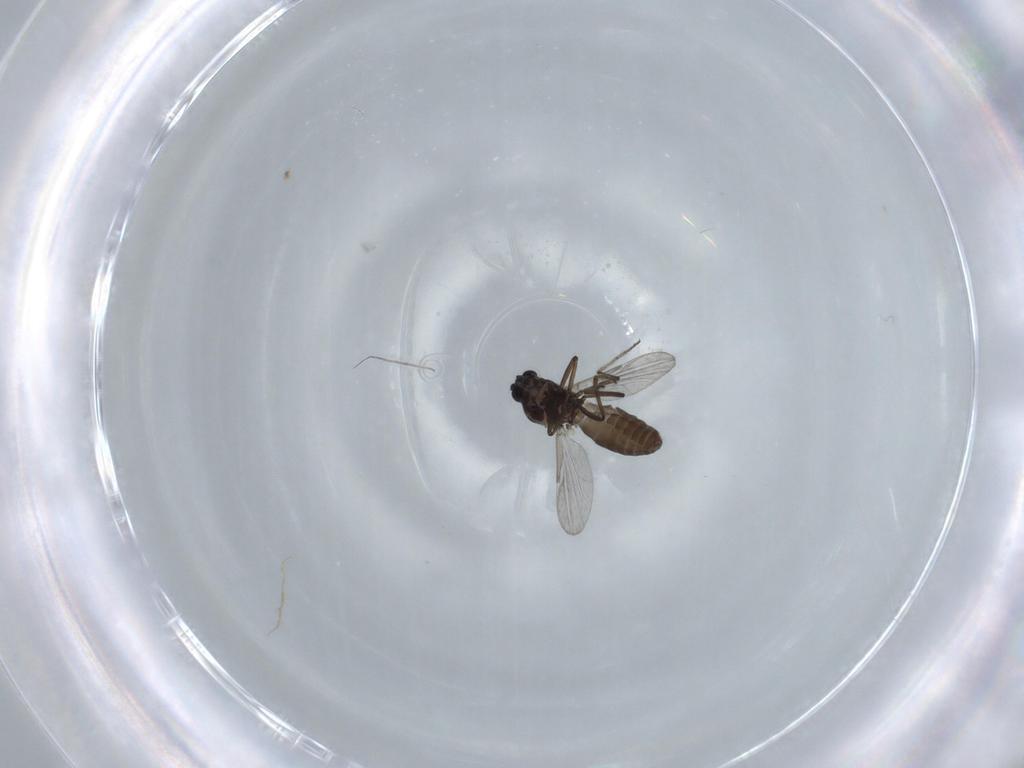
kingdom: Animalia
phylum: Arthropoda
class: Insecta
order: Diptera
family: Ceratopogonidae
